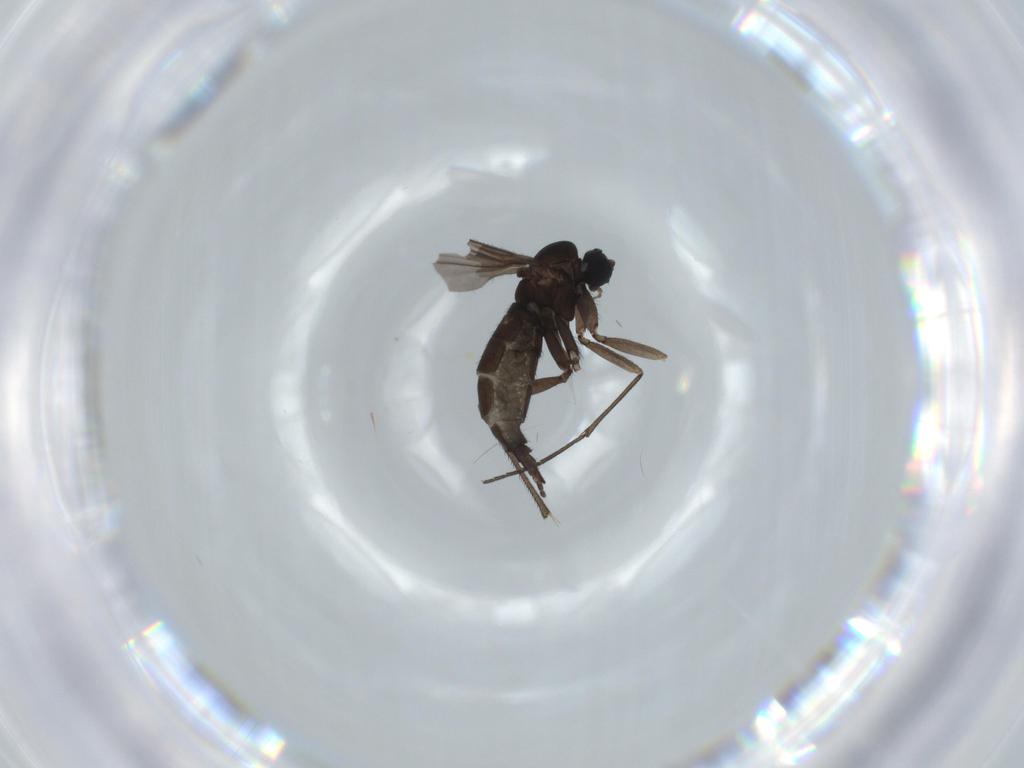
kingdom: Animalia
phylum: Arthropoda
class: Insecta
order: Diptera
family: Sciaridae
